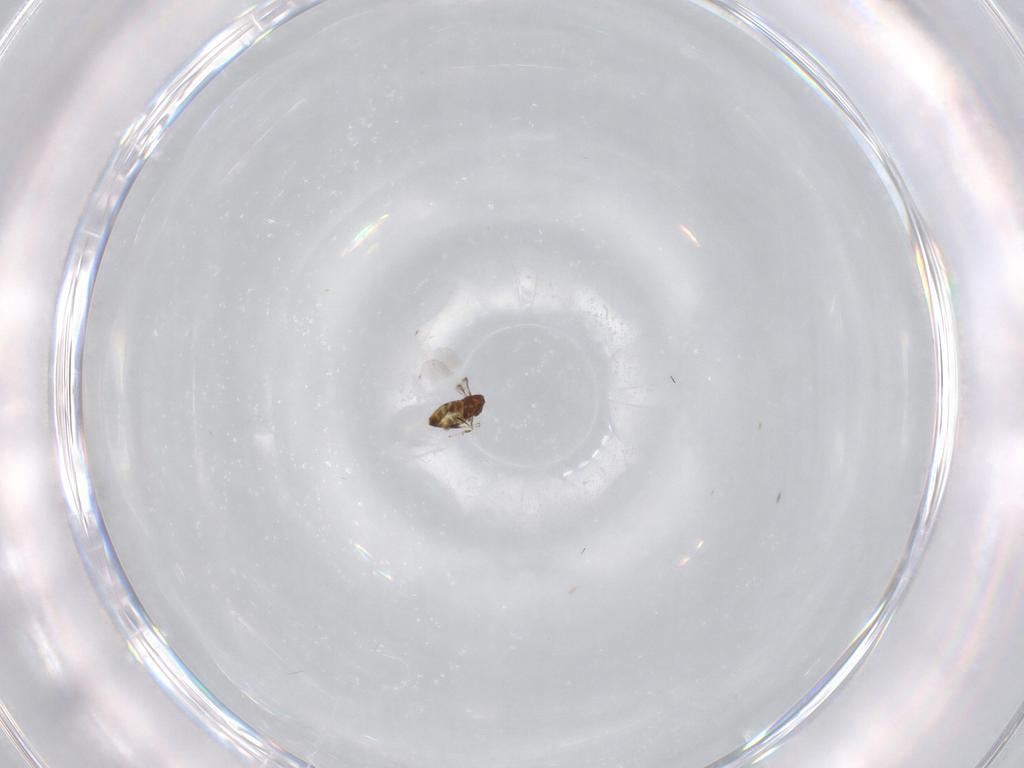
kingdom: Animalia
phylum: Arthropoda
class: Insecta
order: Hymenoptera
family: Trichogrammatidae
